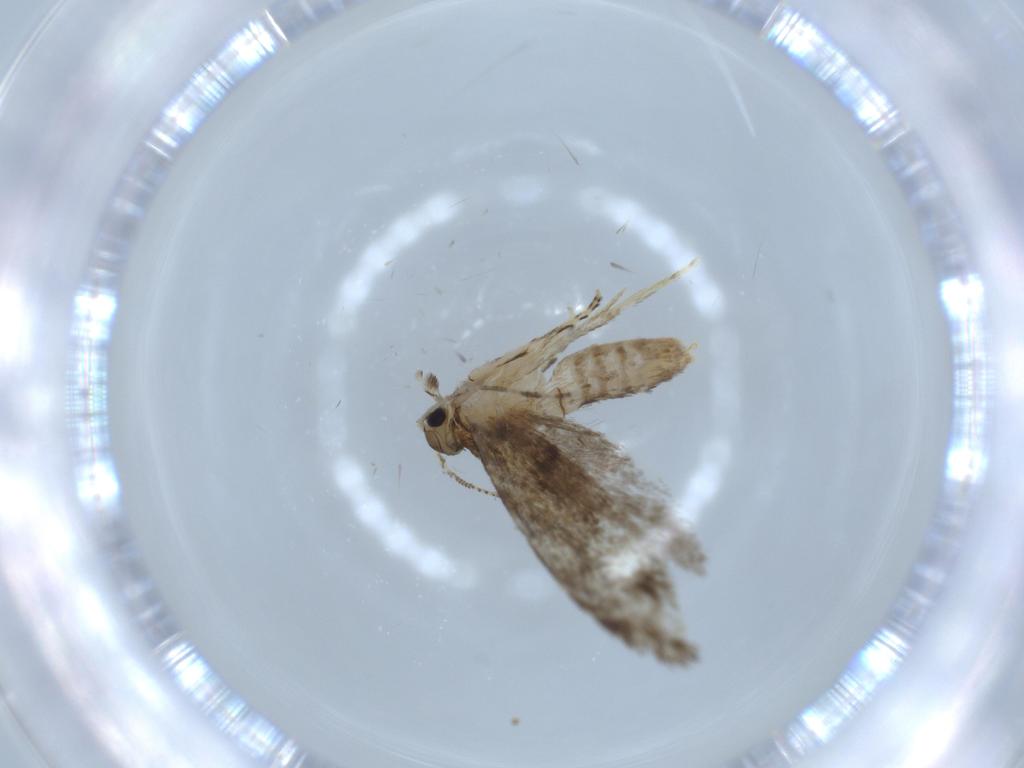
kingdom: Animalia
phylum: Arthropoda
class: Insecta
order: Lepidoptera
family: Tineidae
